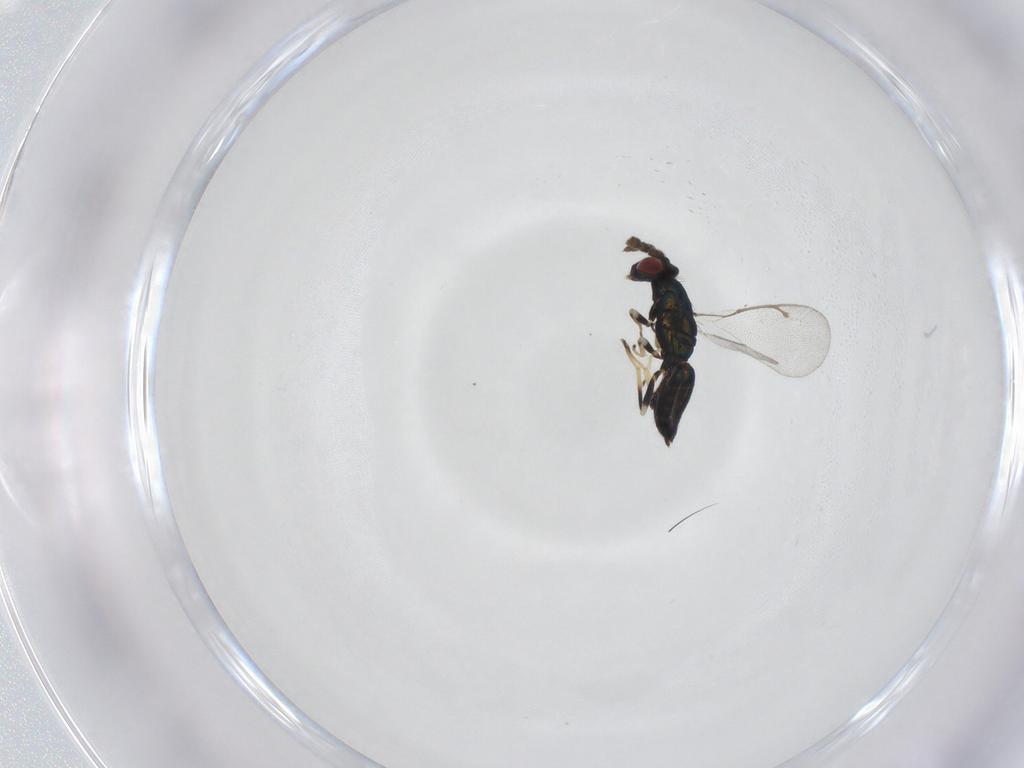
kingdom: Animalia
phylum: Arthropoda
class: Insecta
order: Hymenoptera
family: Eulophidae
